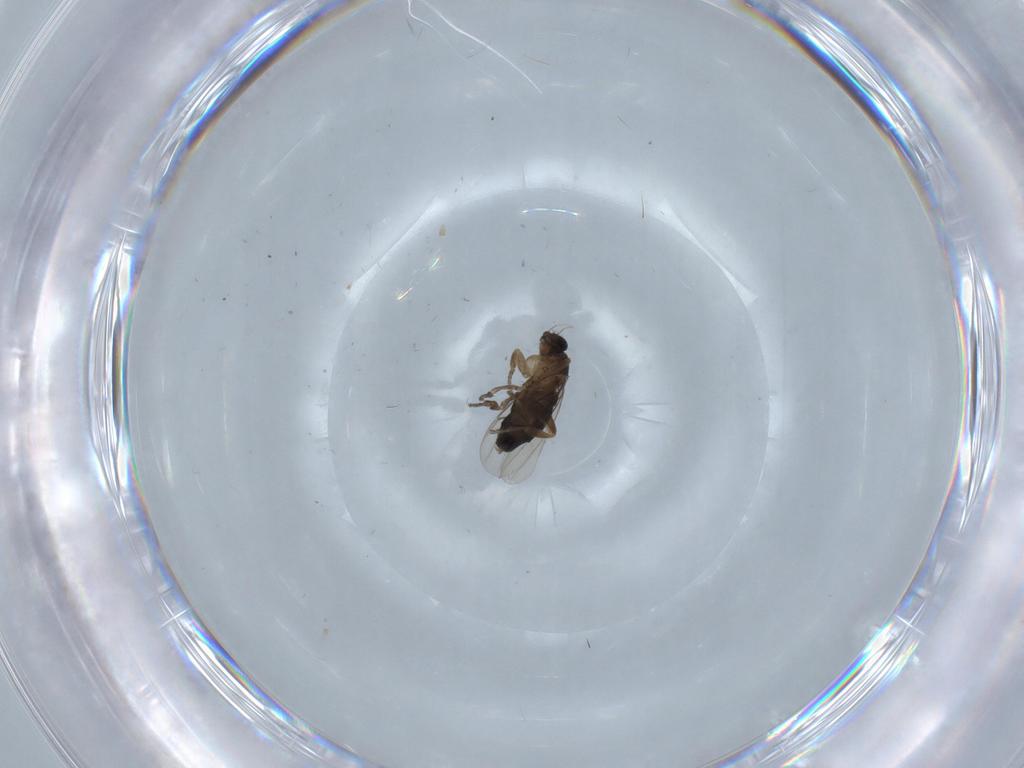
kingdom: Animalia
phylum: Arthropoda
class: Insecta
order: Diptera
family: Phoridae
